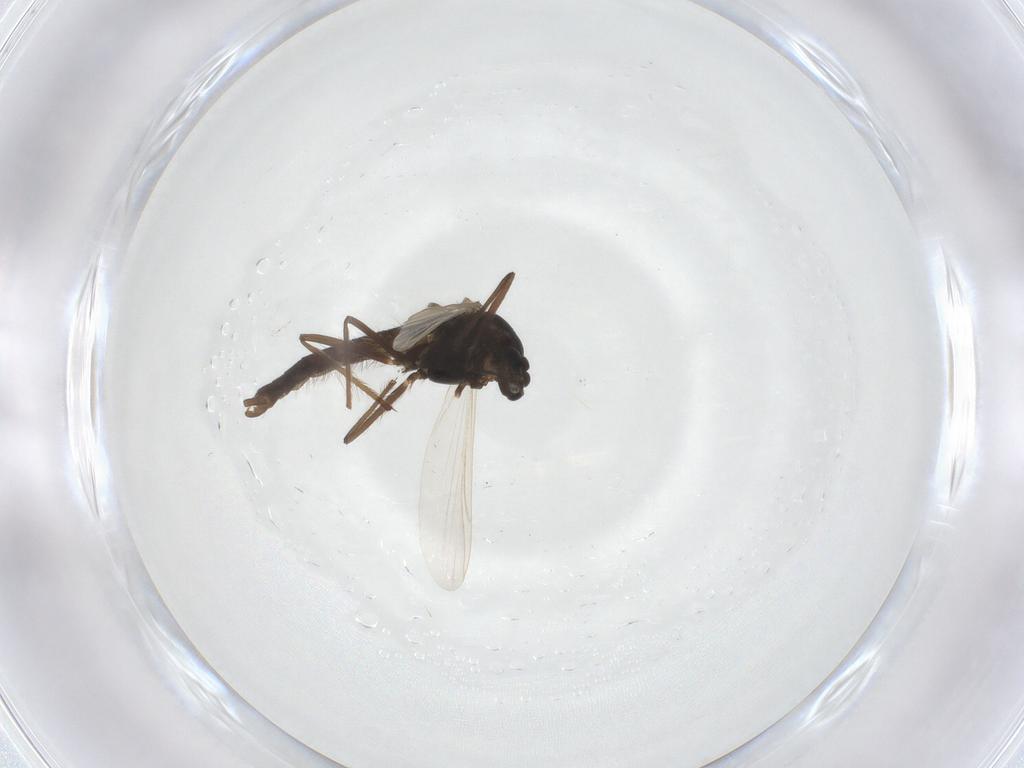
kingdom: Animalia
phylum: Arthropoda
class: Insecta
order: Diptera
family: Chironomidae
